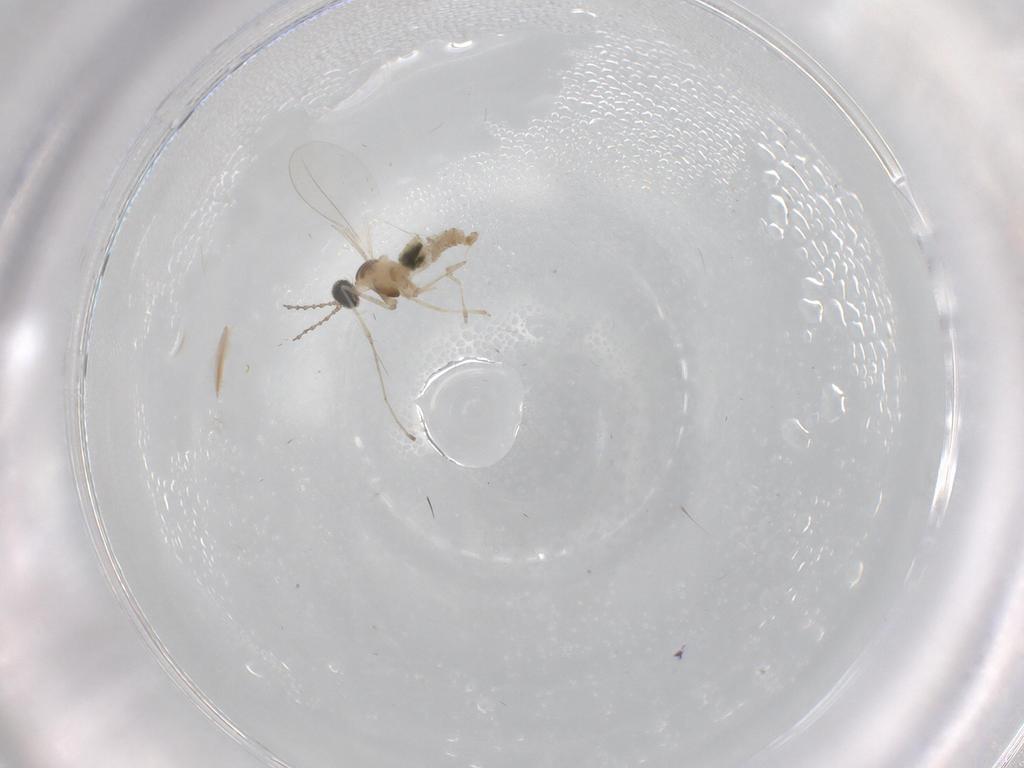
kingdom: Animalia
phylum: Arthropoda
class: Insecta
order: Diptera
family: Cecidomyiidae
